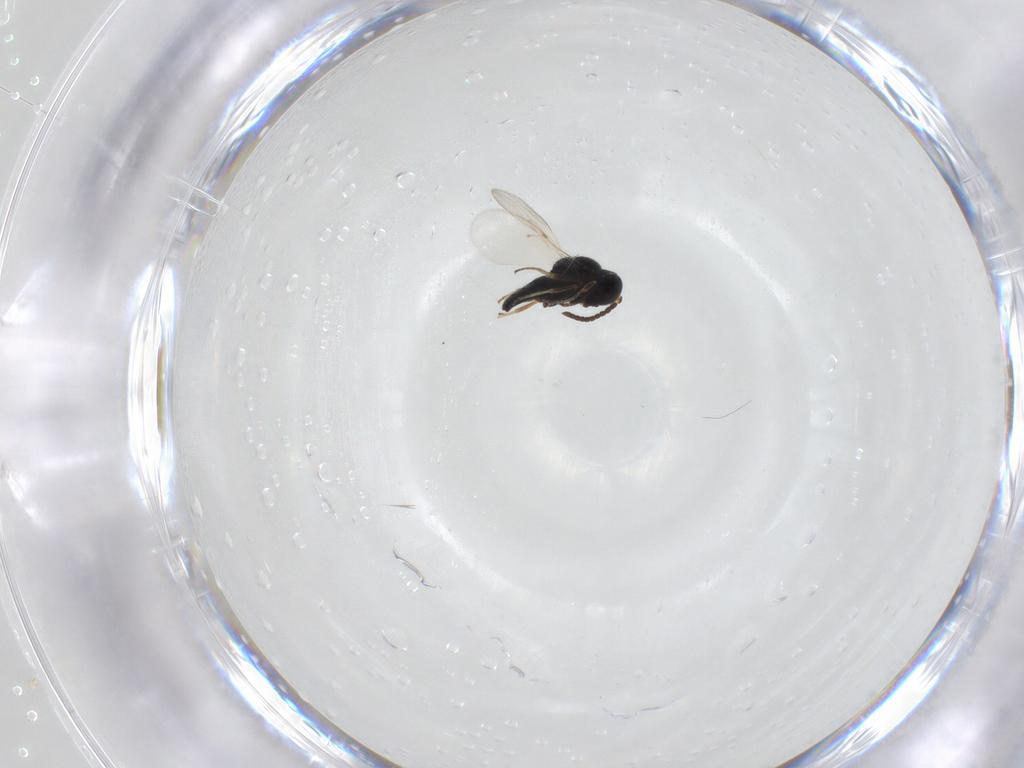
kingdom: Animalia
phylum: Arthropoda
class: Insecta
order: Hymenoptera
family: Scelionidae
